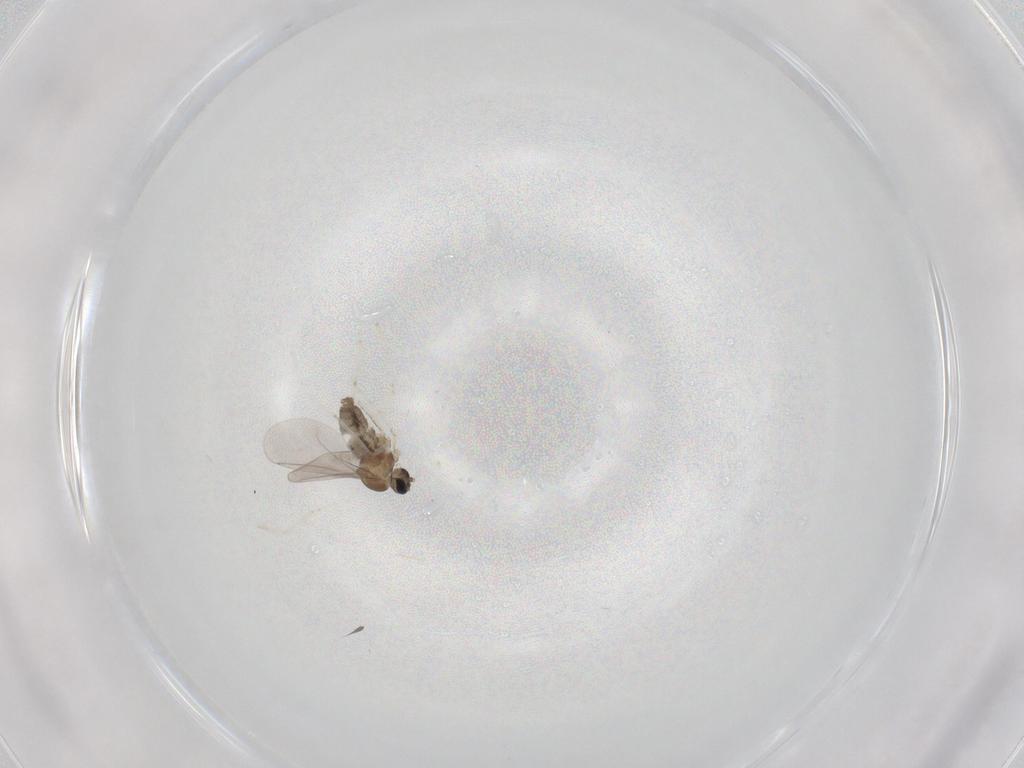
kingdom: Animalia
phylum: Arthropoda
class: Insecta
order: Diptera
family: Cecidomyiidae
